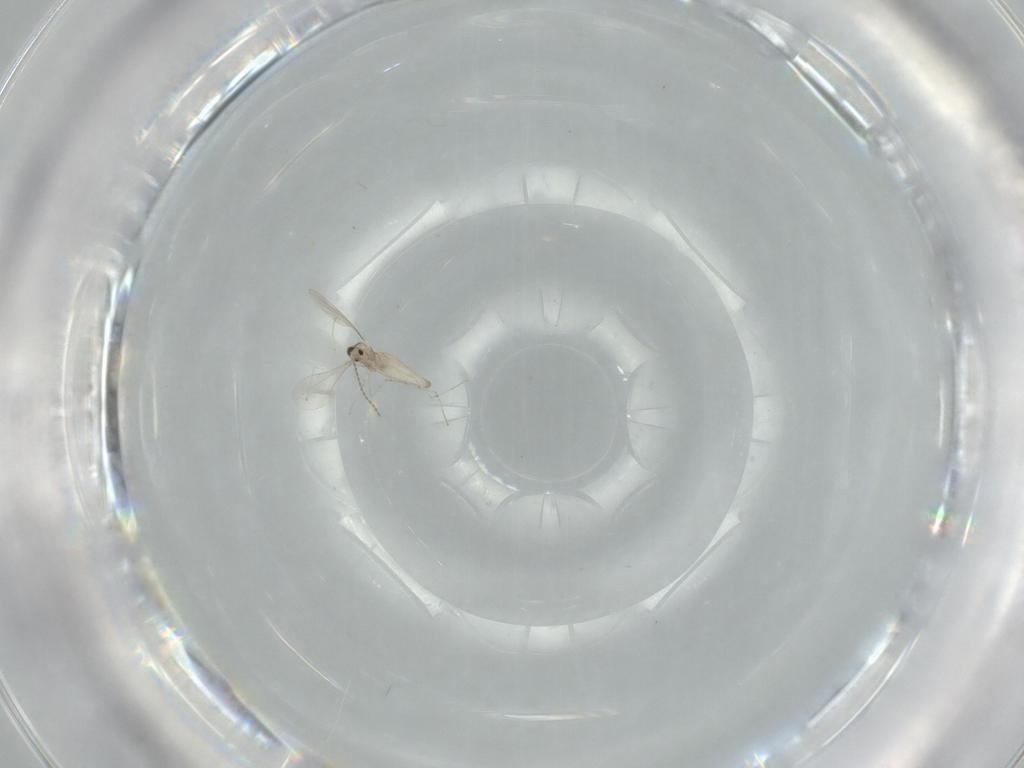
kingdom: Animalia
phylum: Arthropoda
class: Insecta
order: Diptera
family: Cecidomyiidae
